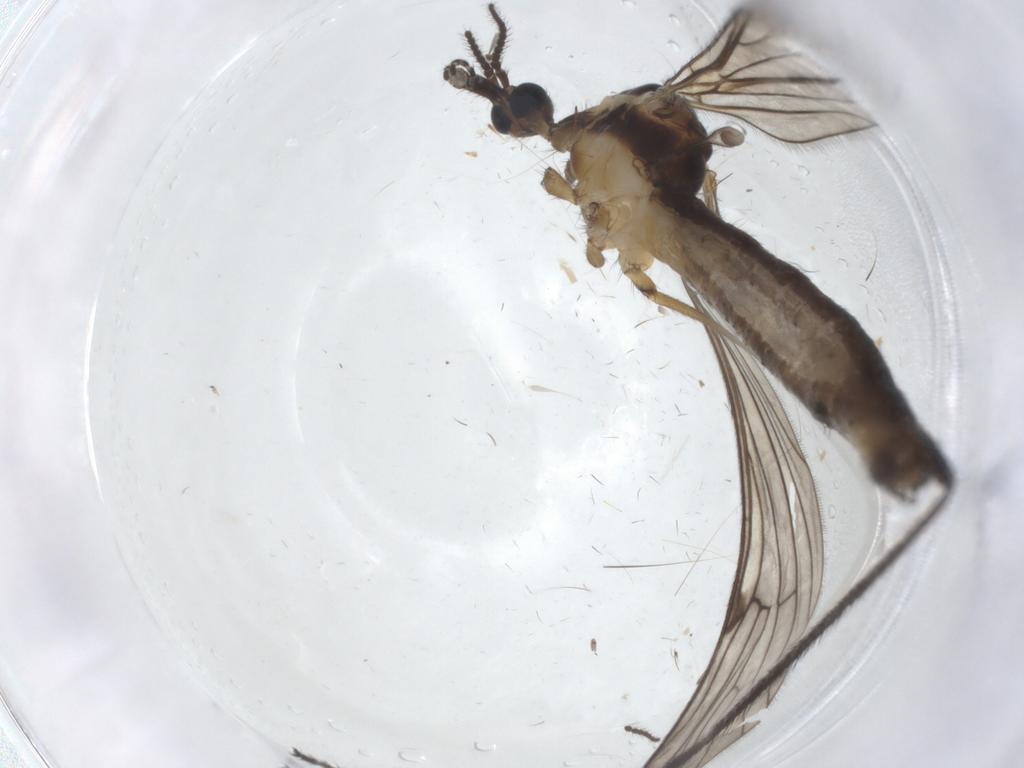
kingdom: Animalia
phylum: Arthropoda
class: Insecta
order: Diptera
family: Limoniidae
